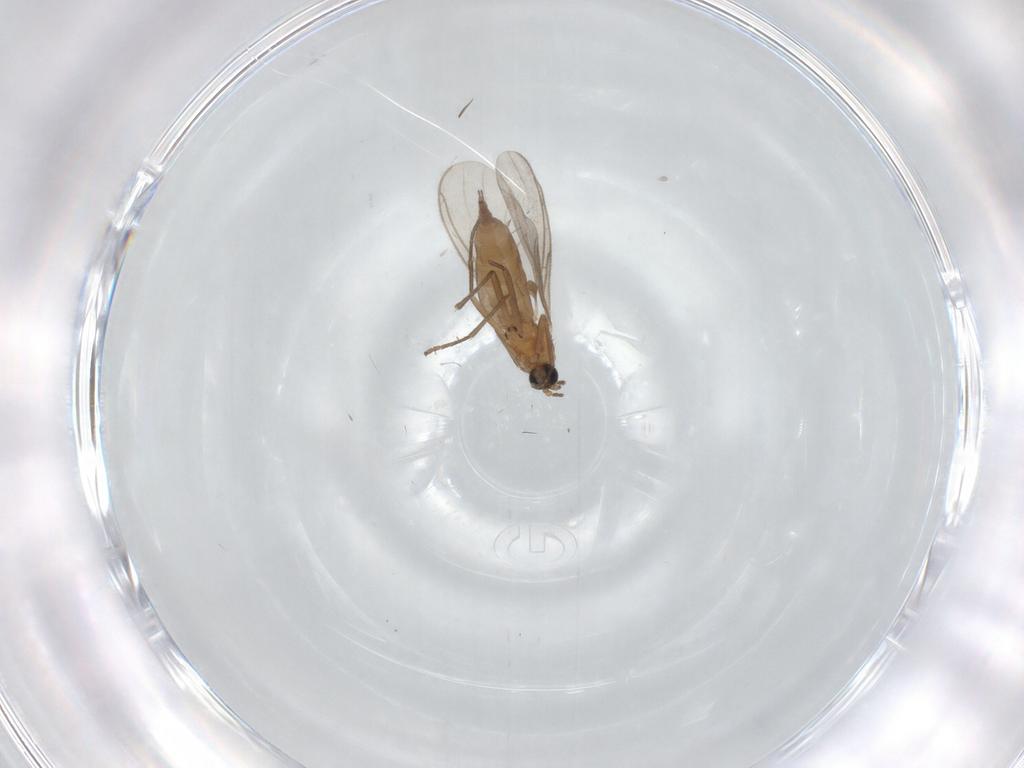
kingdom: Animalia
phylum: Arthropoda
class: Insecta
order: Diptera
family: Sciaridae
